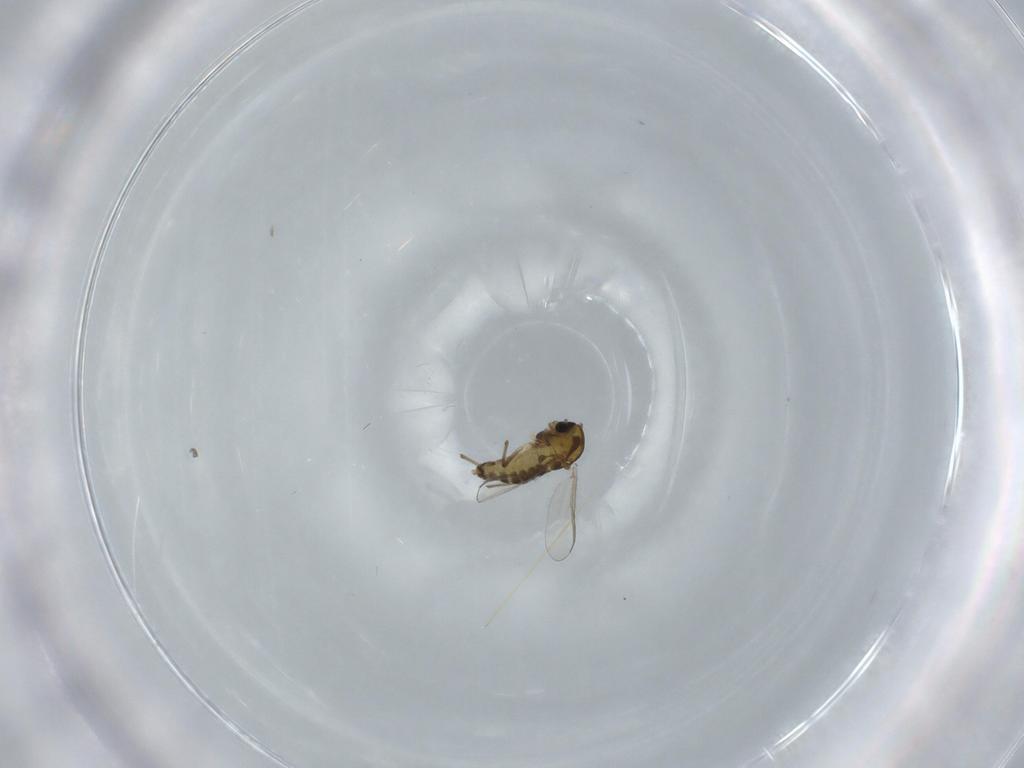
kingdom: Animalia
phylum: Arthropoda
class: Insecta
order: Diptera
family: Chironomidae
